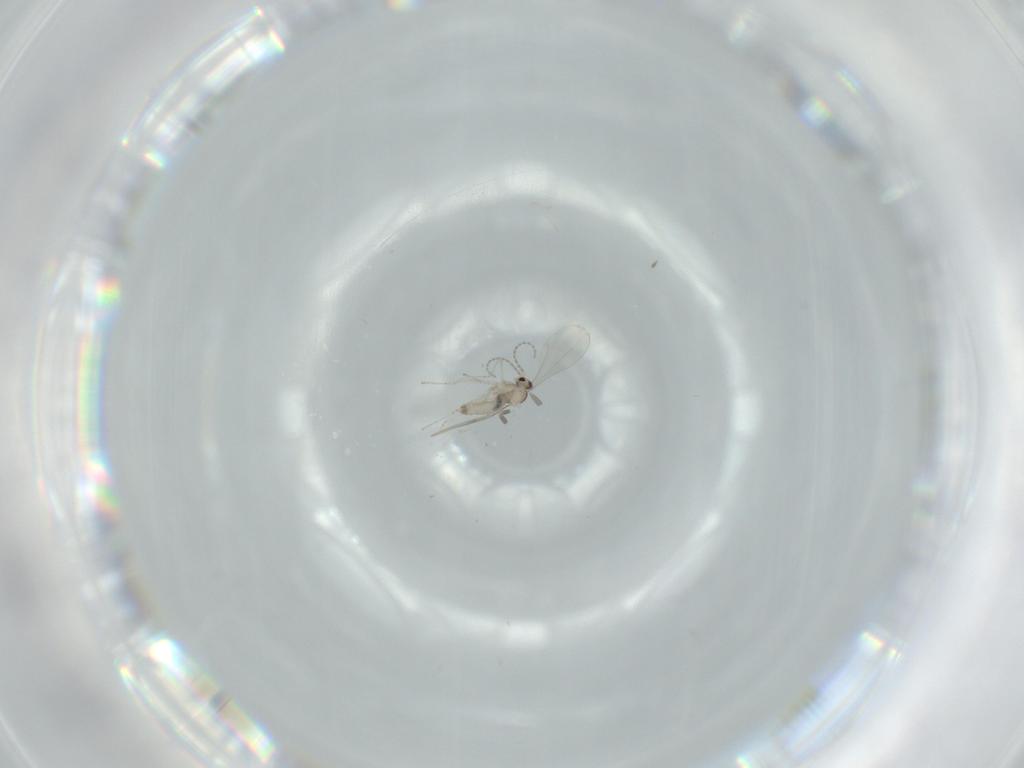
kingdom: Animalia
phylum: Arthropoda
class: Insecta
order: Diptera
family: Cecidomyiidae
